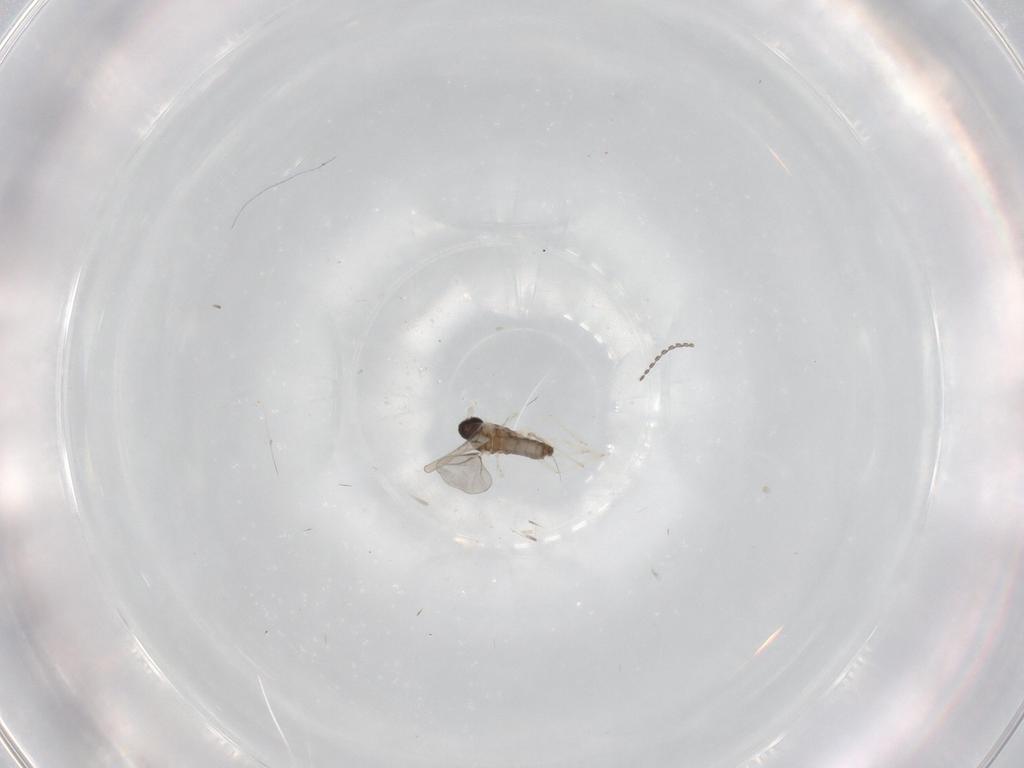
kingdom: Animalia
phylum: Arthropoda
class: Insecta
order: Diptera
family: Cecidomyiidae
